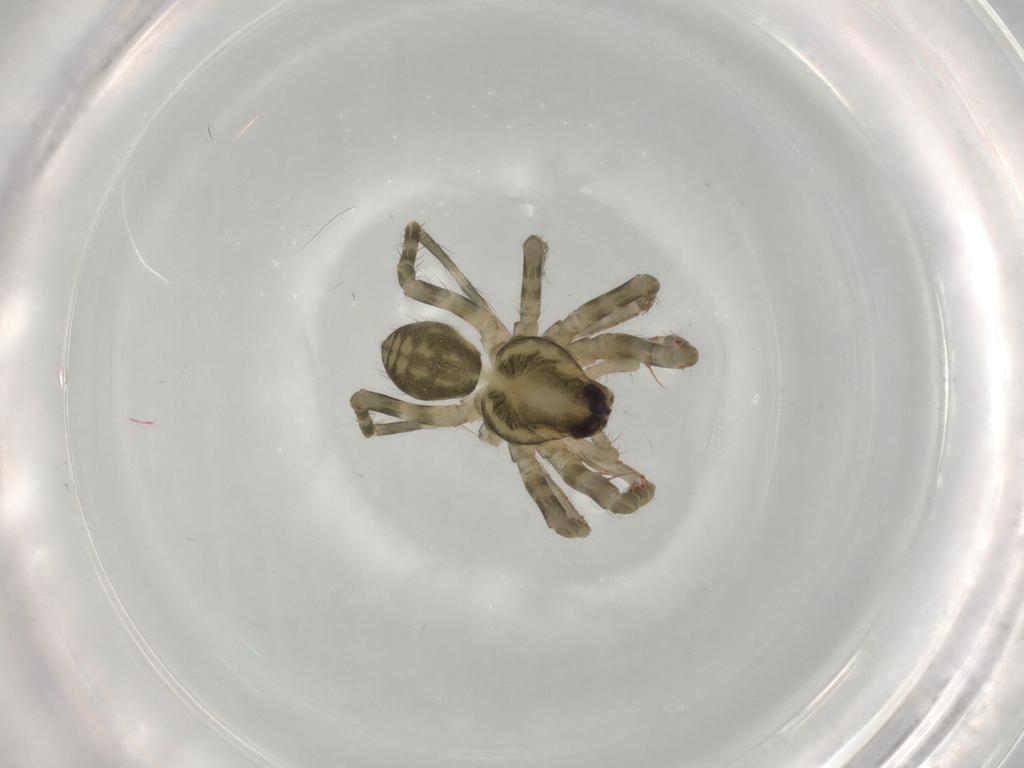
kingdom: Animalia
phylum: Arthropoda
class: Arachnida
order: Araneae
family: Ctenidae
